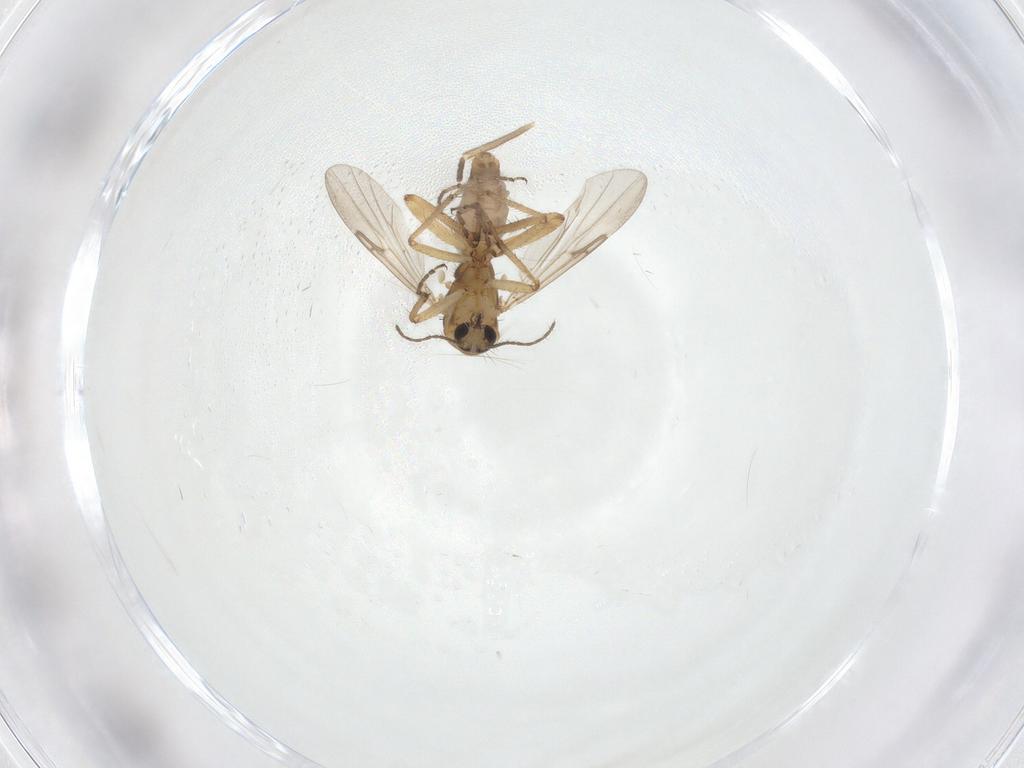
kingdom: Animalia
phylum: Arthropoda
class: Insecta
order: Diptera
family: Ceratopogonidae
